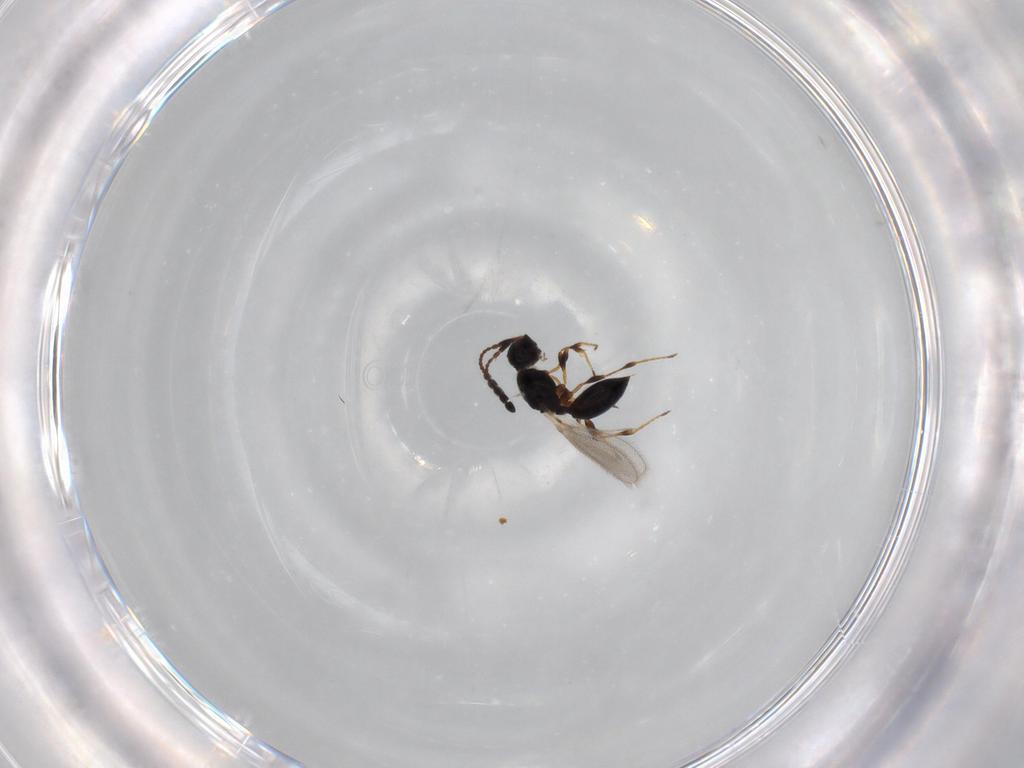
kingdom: Animalia
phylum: Arthropoda
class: Insecta
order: Hymenoptera
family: Diapriidae
